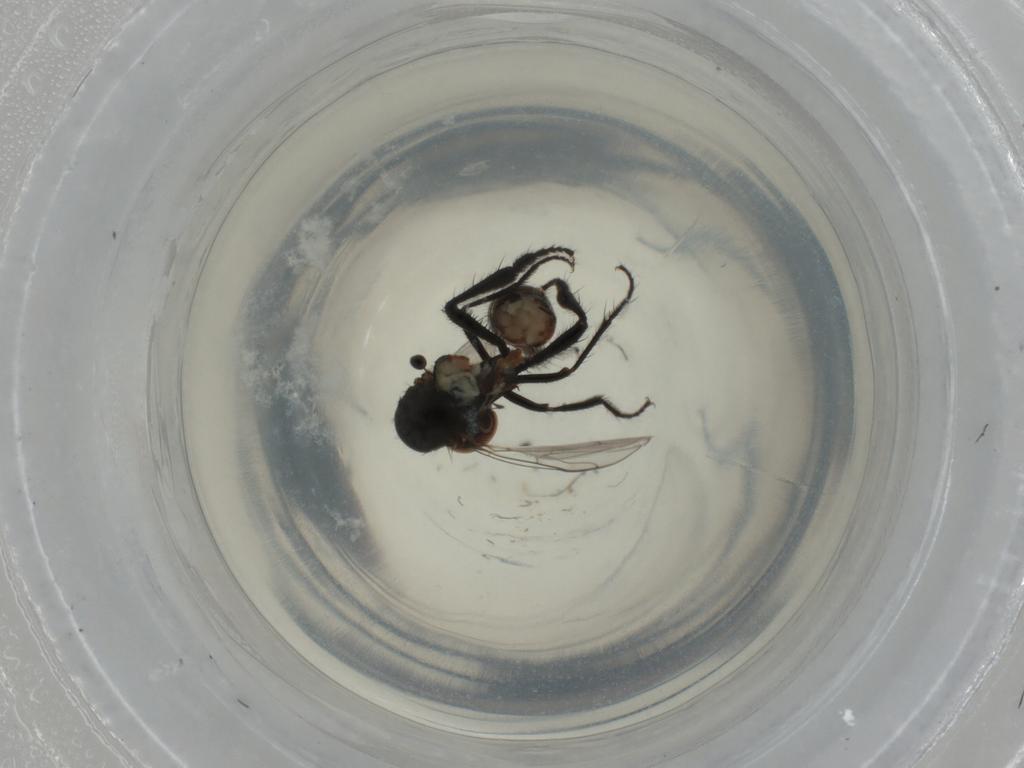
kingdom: Animalia
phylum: Arthropoda
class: Insecta
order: Diptera
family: Hybotidae
